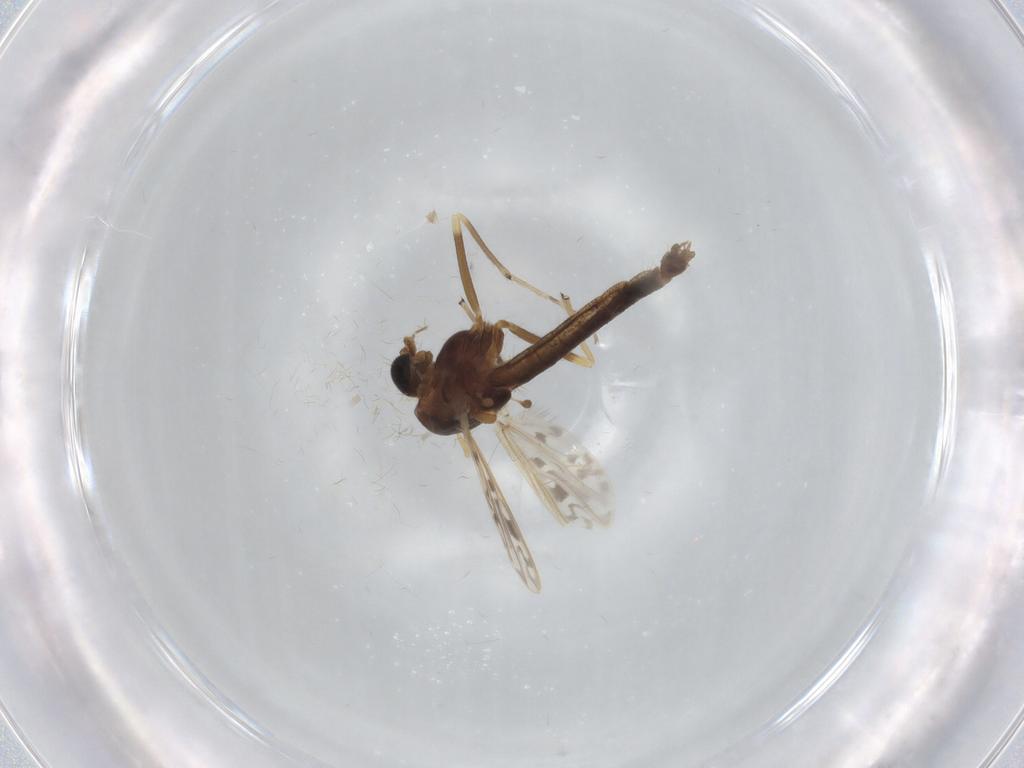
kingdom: Animalia
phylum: Arthropoda
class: Insecta
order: Diptera
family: Chironomidae
